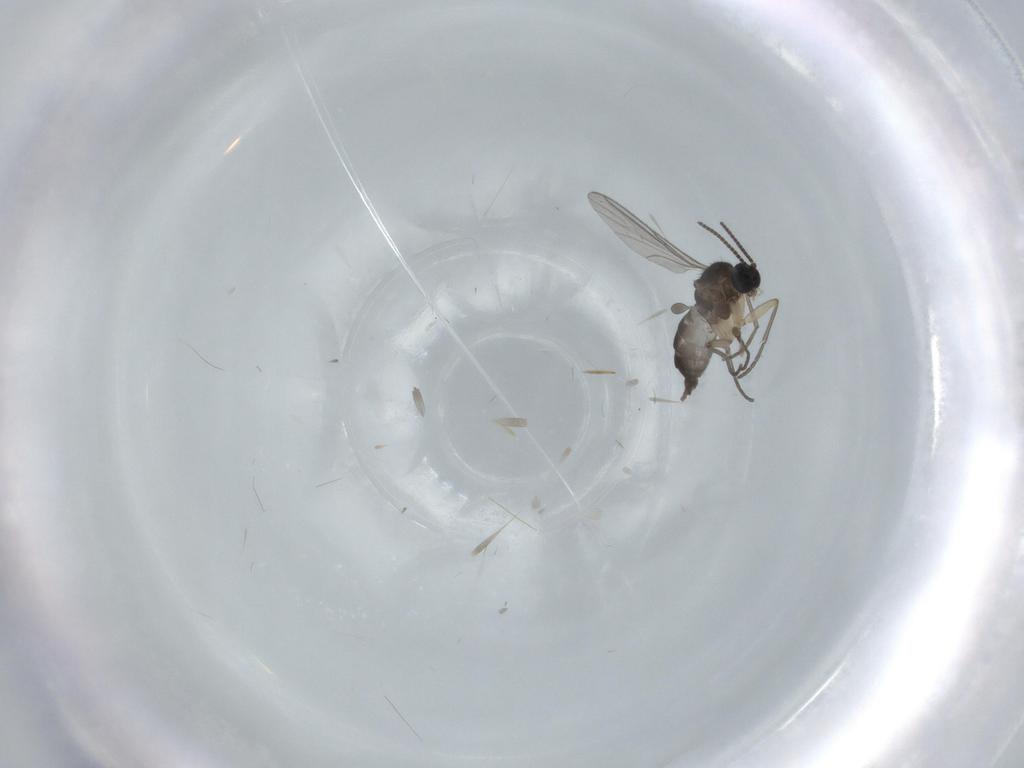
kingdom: Animalia
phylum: Arthropoda
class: Insecta
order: Diptera
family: Sciaridae
